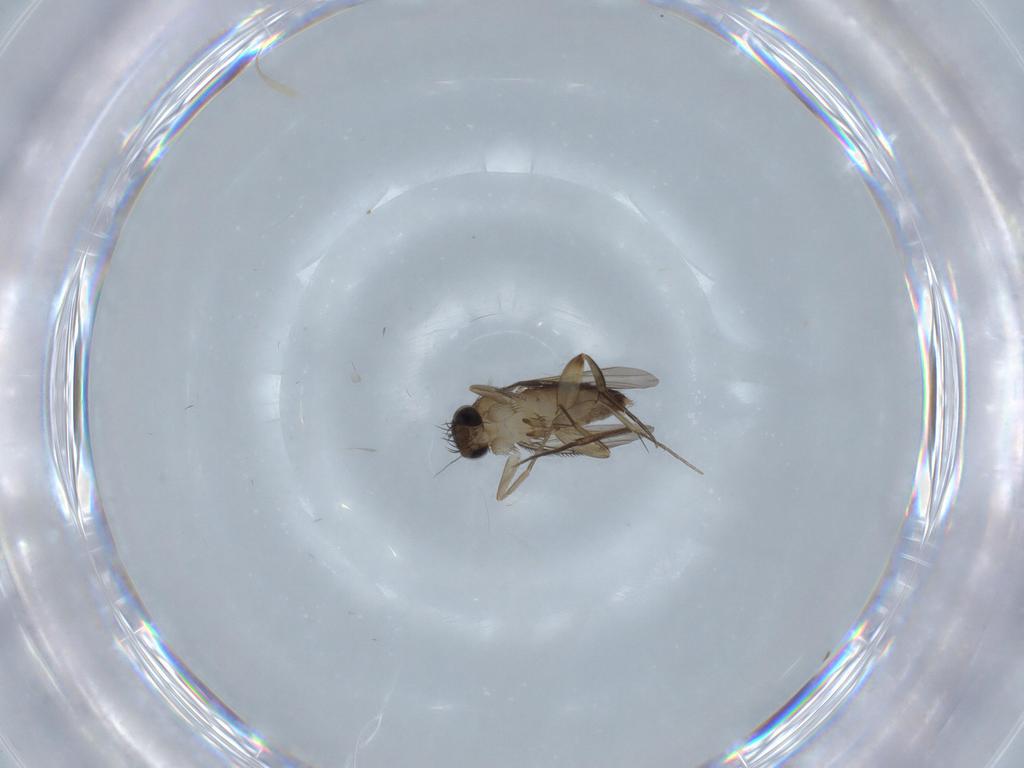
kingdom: Animalia
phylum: Arthropoda
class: Insecta
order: Diptera
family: Phoridae
